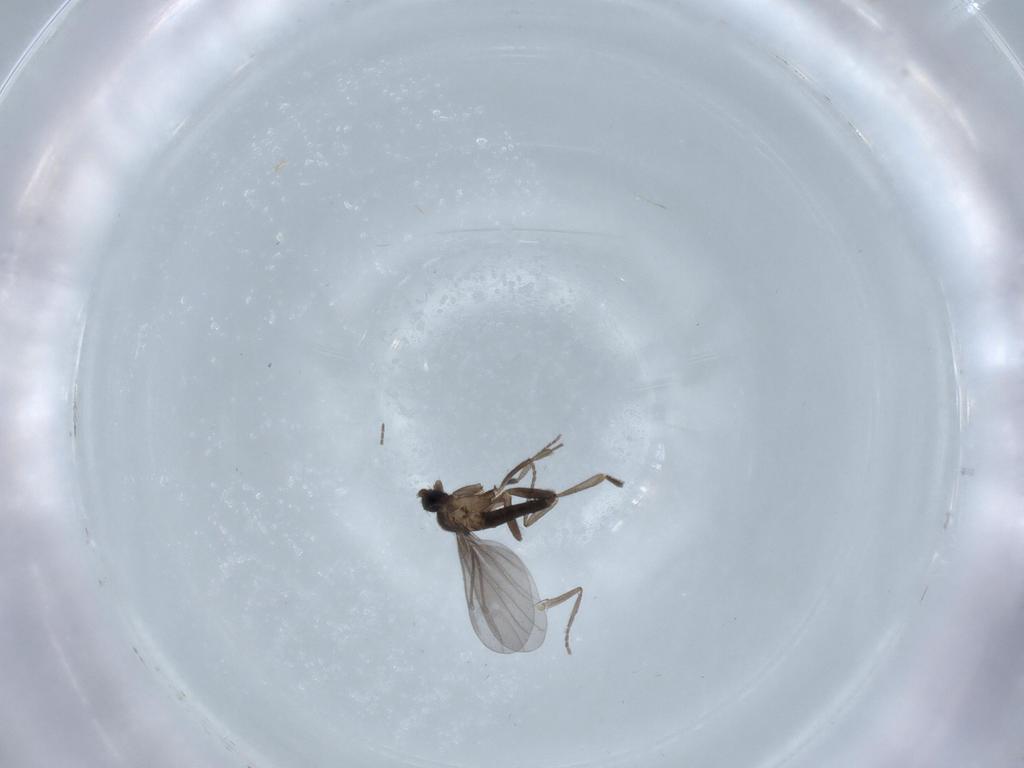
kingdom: Animalia
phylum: Arthropoda
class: Insecta
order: Diptera
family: Phoridae
